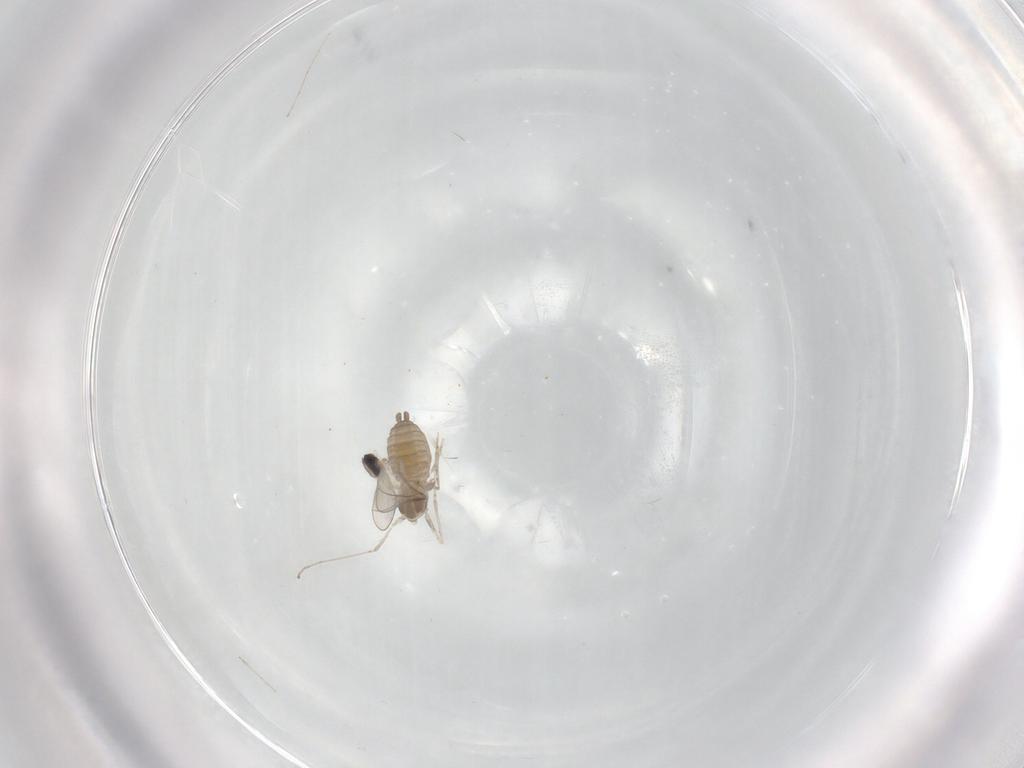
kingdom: Animalia
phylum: Arthropoda
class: Insecta
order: Diptera
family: Cecidomyiidae
